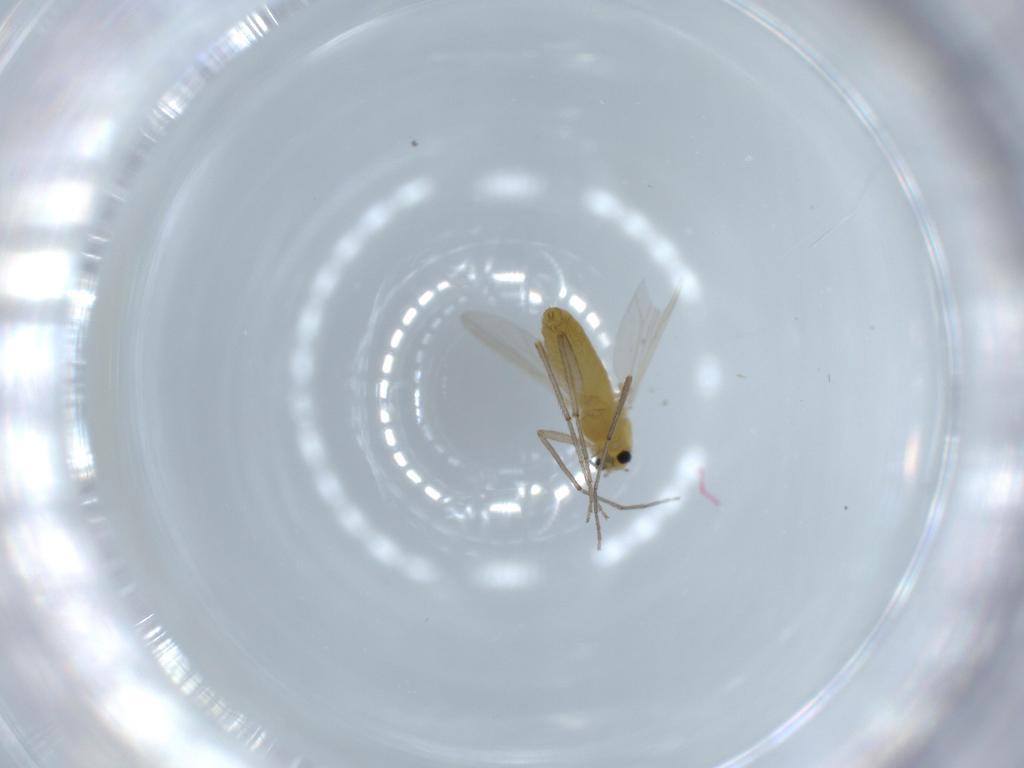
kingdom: Animalia
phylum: Arthropoda
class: Insecta
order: Diptera
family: Chironomidae
